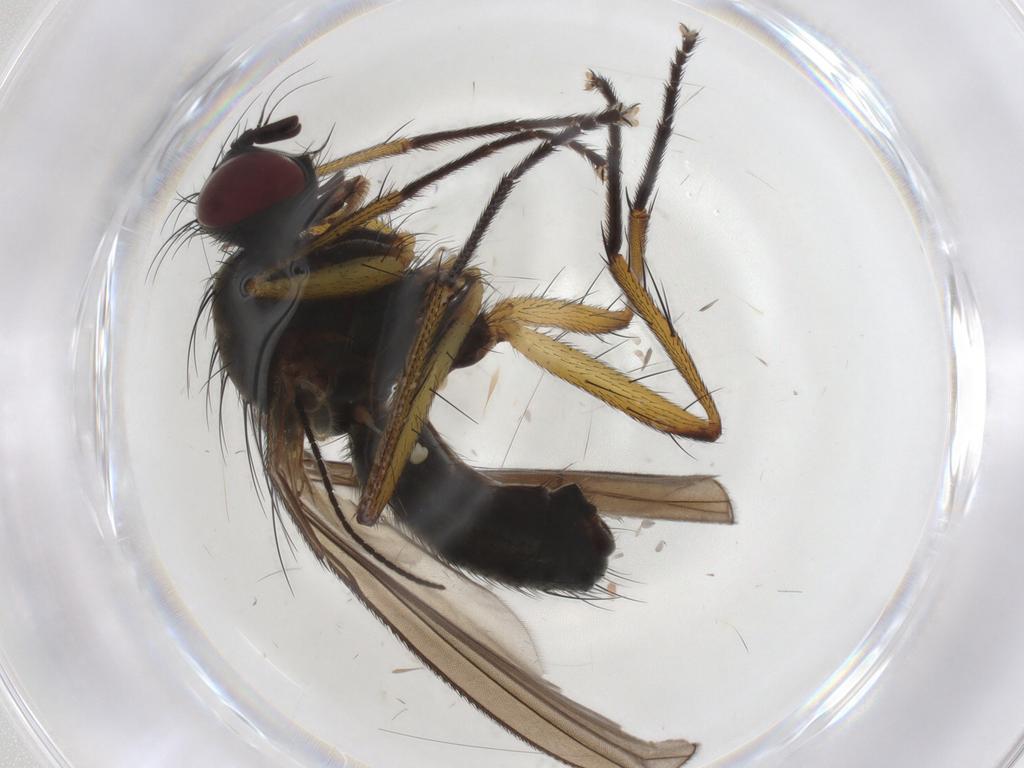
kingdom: Animalia
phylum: Arthropoda
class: Insecta
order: Diptera
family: Muscidae
